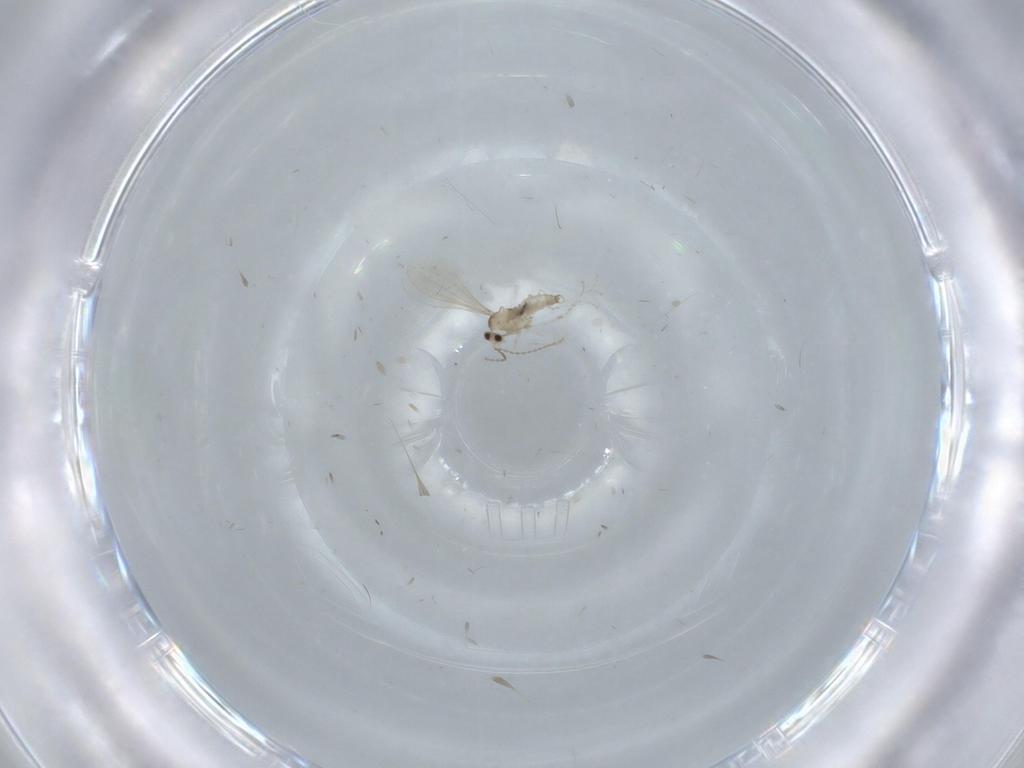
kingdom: Animalia
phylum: Arthropoda
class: Insecta
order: Diptera
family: Cecidomyiidae
